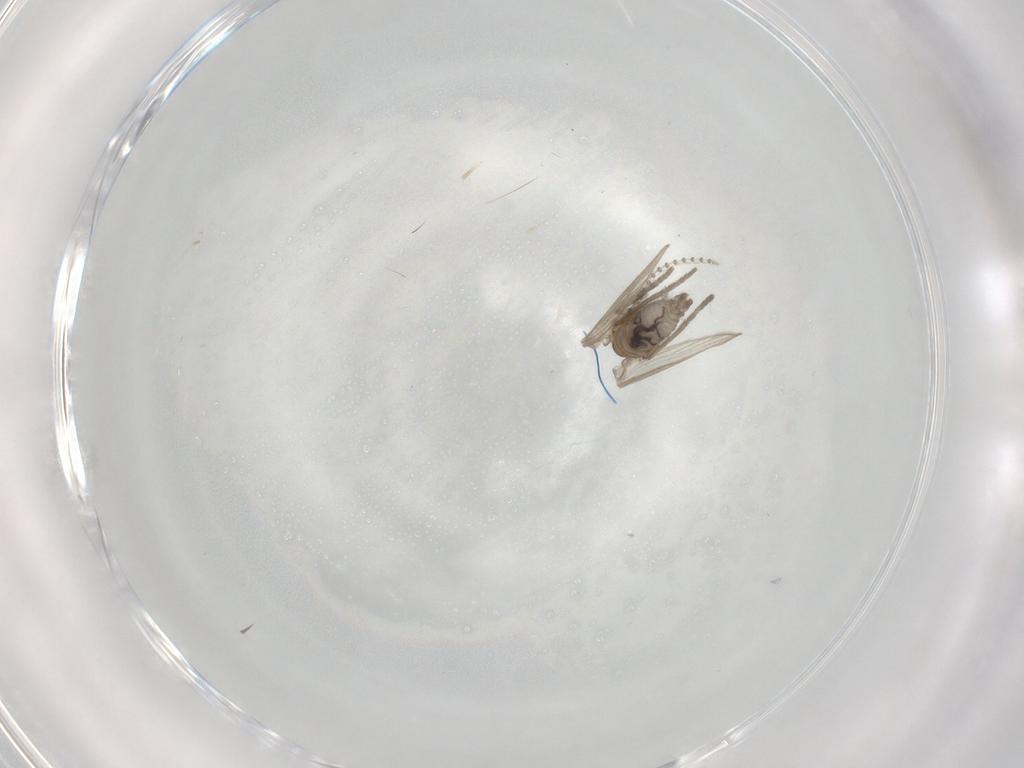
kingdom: Animalia
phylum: Arthropoda
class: Insecta
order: Diptera
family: Psychodidae
